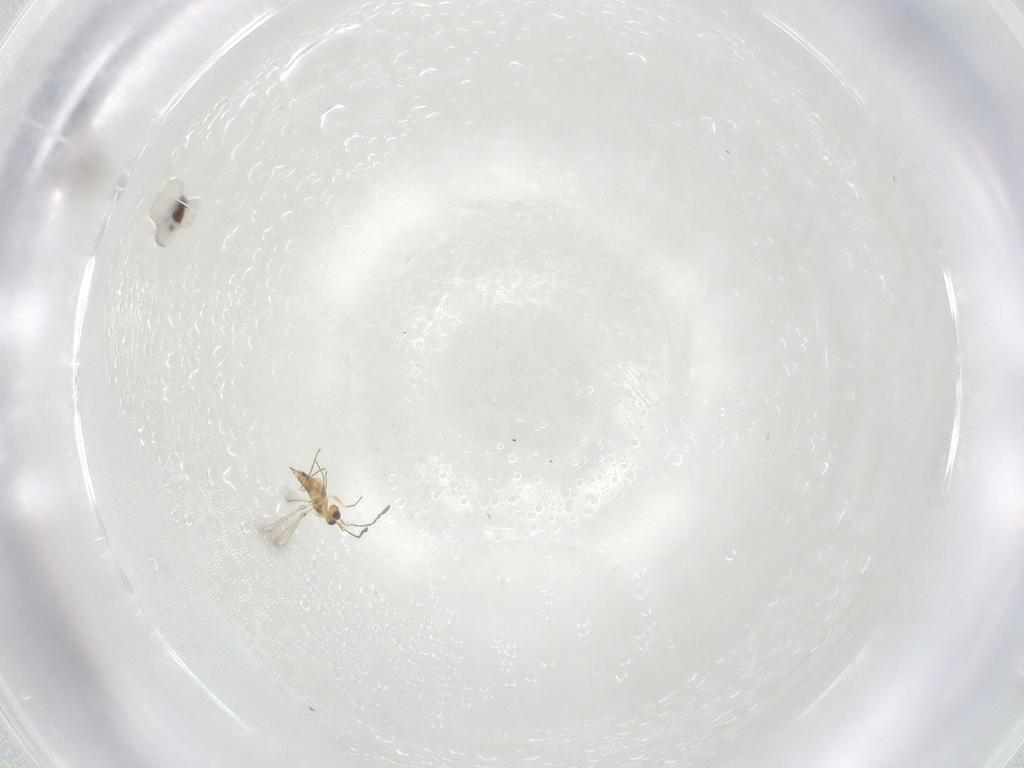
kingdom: Animalia
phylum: Arthropoda
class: Insecta
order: Hymenoptera
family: Mymaridae
